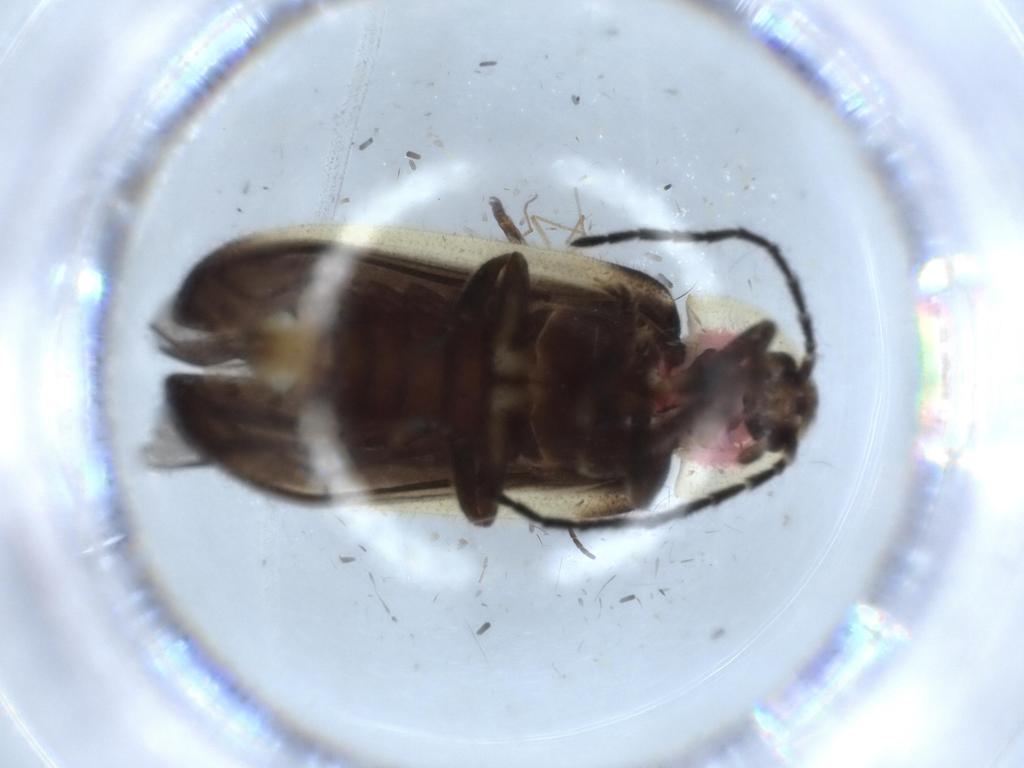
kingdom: Animalia
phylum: Arthropoda
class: Insecta
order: Coleoptera
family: Lampyridae
